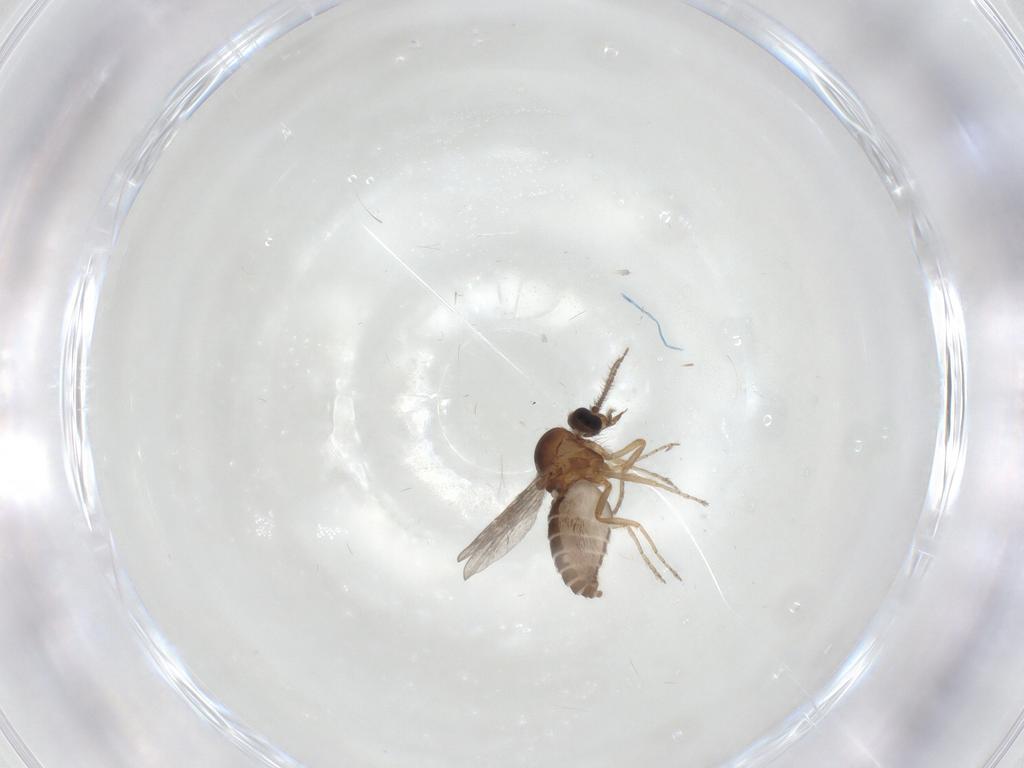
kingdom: Animalia
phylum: Arthropoda
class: Insecta
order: Diptera
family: Ceratopogonidae
